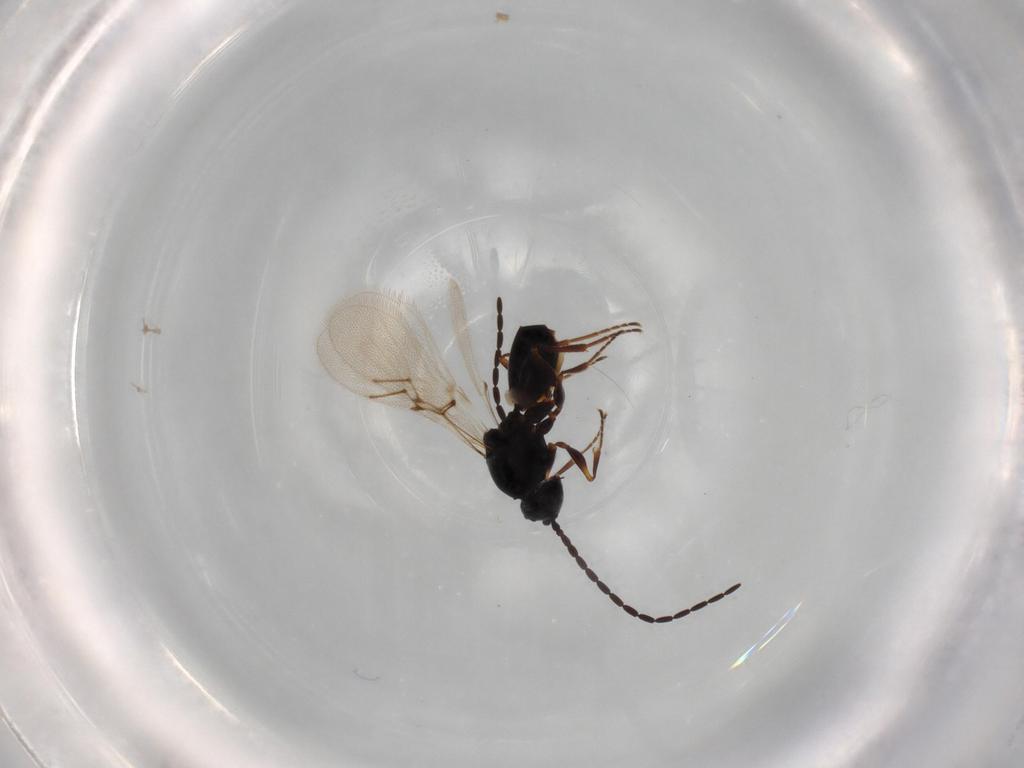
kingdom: Animalia
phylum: Arthropoda
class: Insecta
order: Hymenoptera
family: Figitidae
